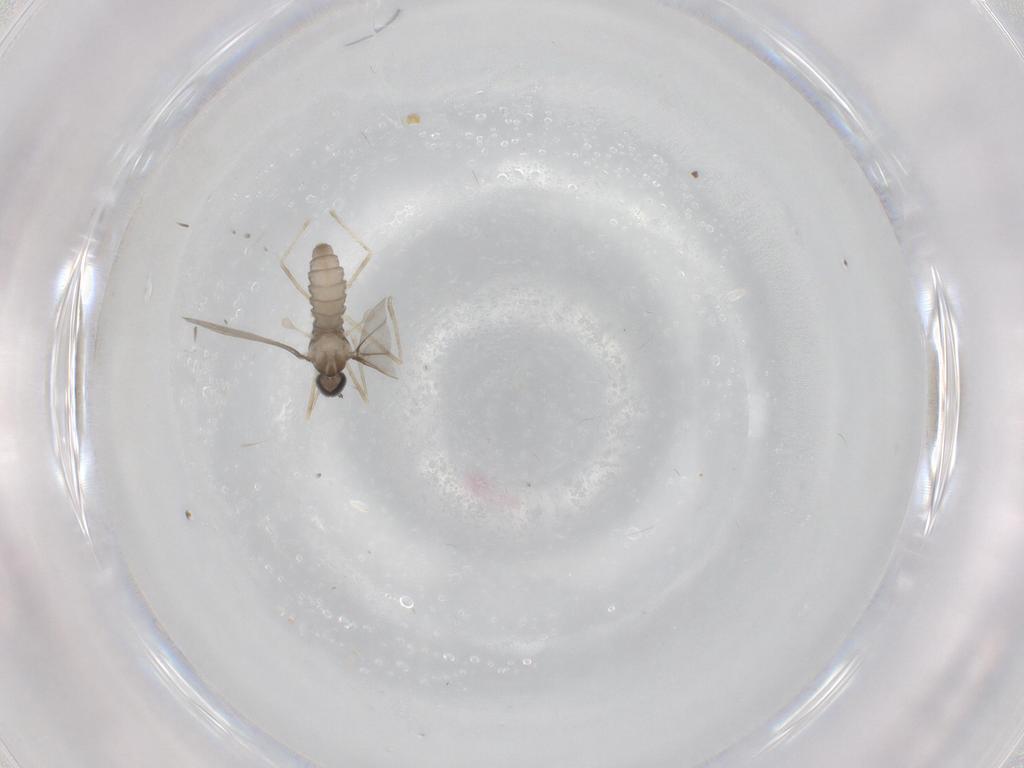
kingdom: Animalia
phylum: Arthropoda
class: Insecta
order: Diptera
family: Cecidomyiidae
